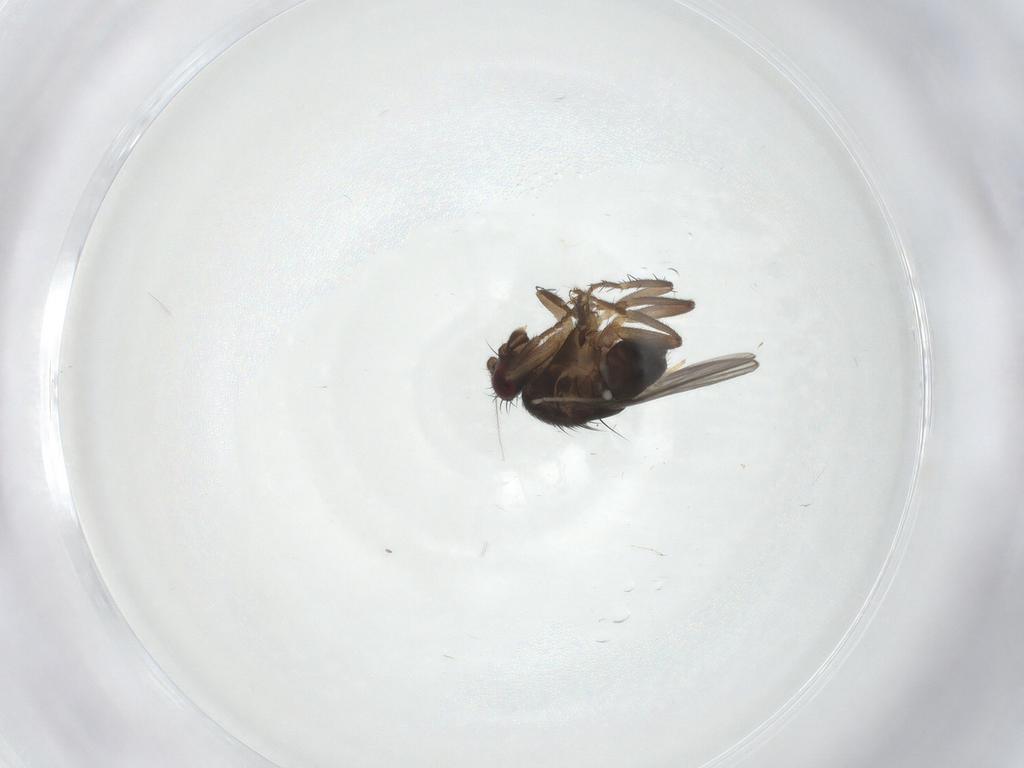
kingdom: Animalia
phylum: Arthropoda
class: Insecta
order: Diptera
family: Sphaeroceridae
